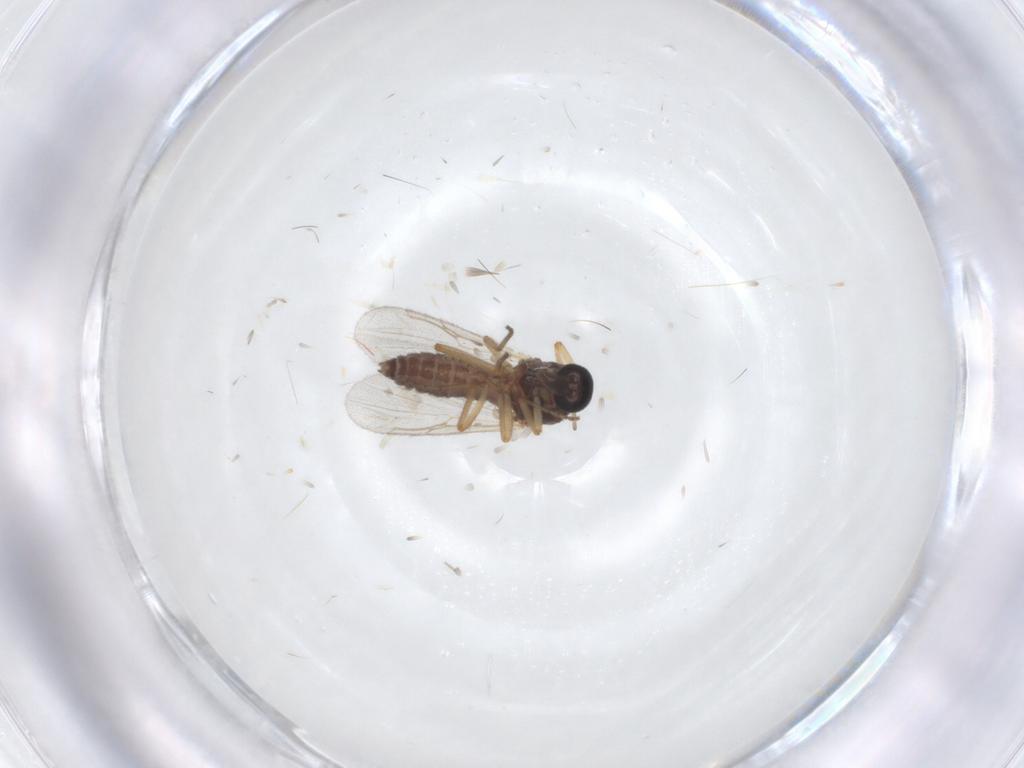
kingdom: Animalia
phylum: Arthropoda
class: Insecta
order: Diptera
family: Ceratopogonidae
